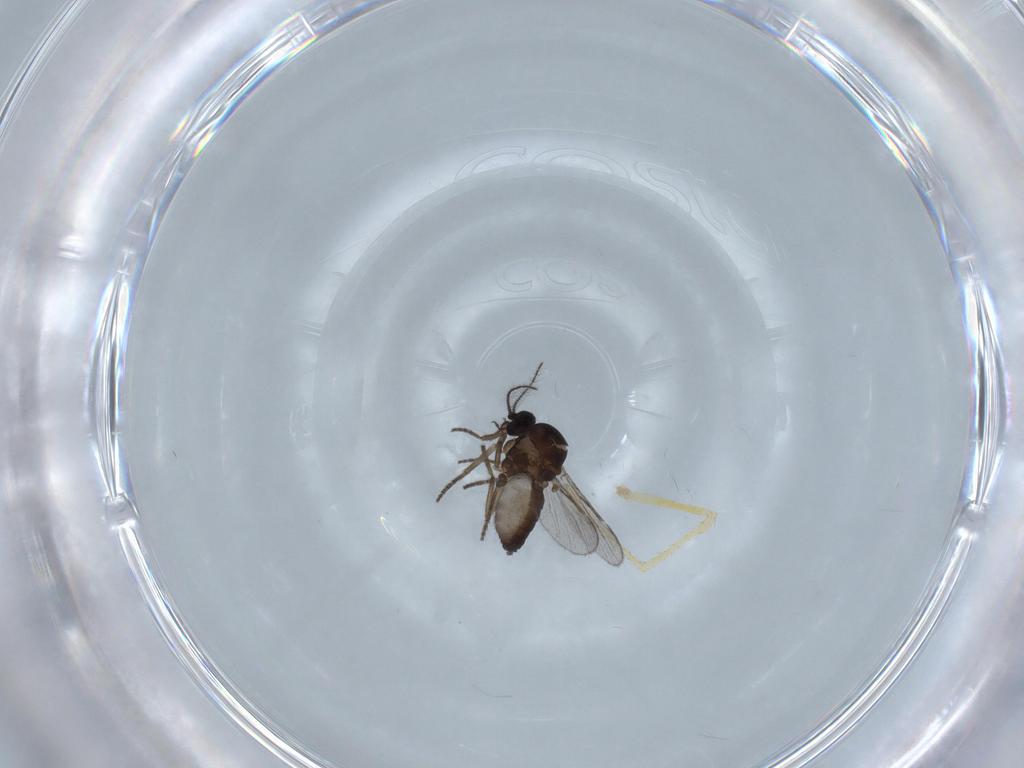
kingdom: Animalia
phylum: Arthropoda
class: Insecta
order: Diptera
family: Ceratopogonidae
